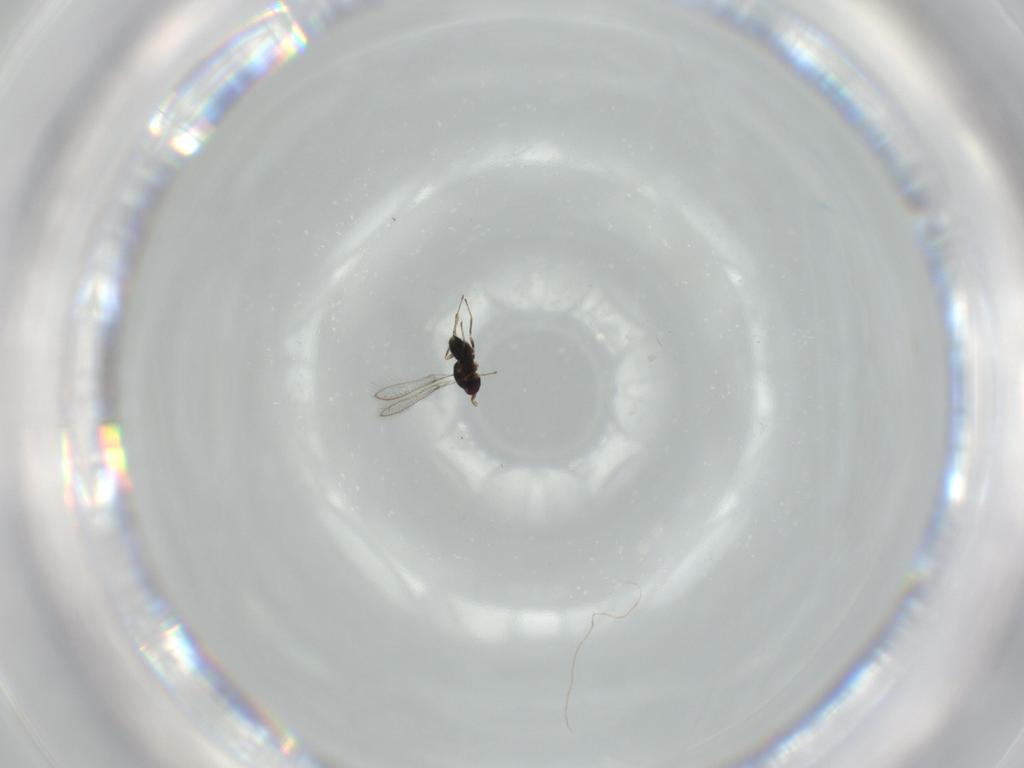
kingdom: Animalia
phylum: Arthropoda
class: Insecta
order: Hymenoptera
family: Mymaridae
